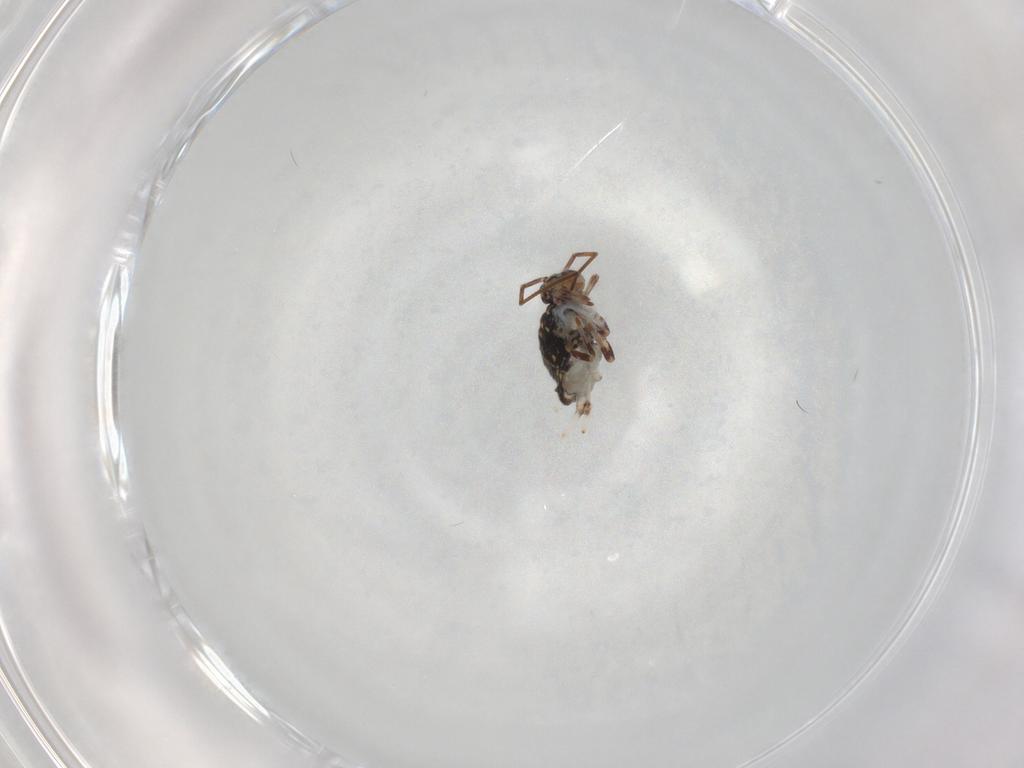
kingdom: Animalia
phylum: Arthropoda
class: Collembola
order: Symphypleona
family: Katiannidae
